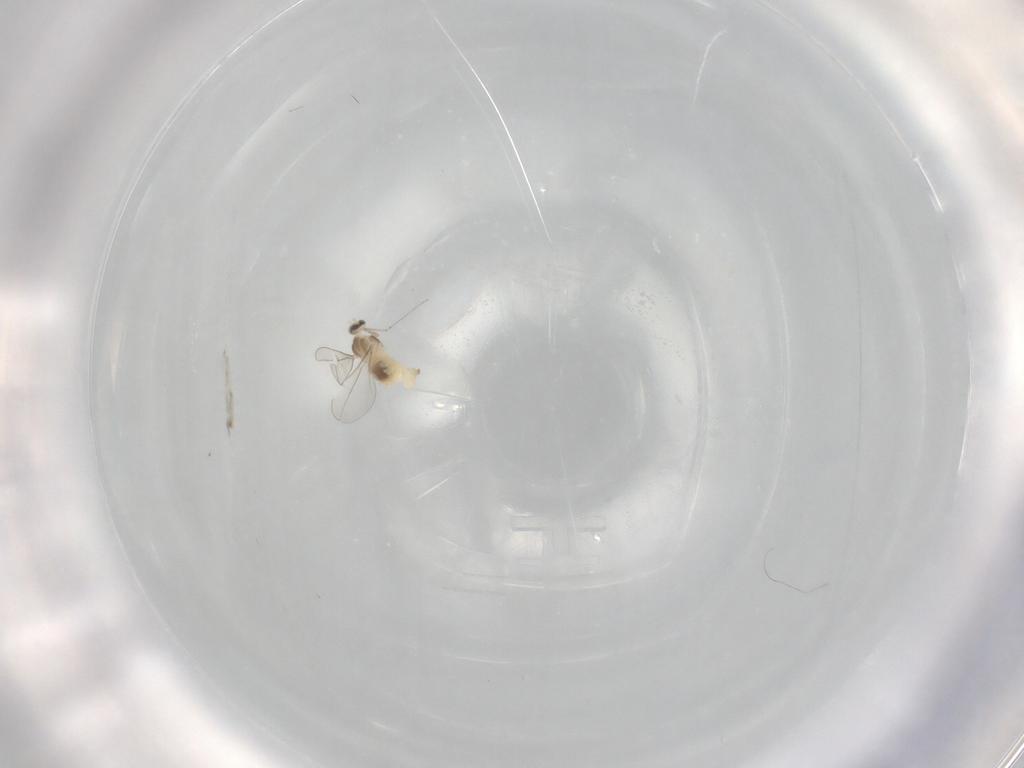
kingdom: Animalia
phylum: Arthropoda
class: Insecta
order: Diptera
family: Cecidomyiidae
